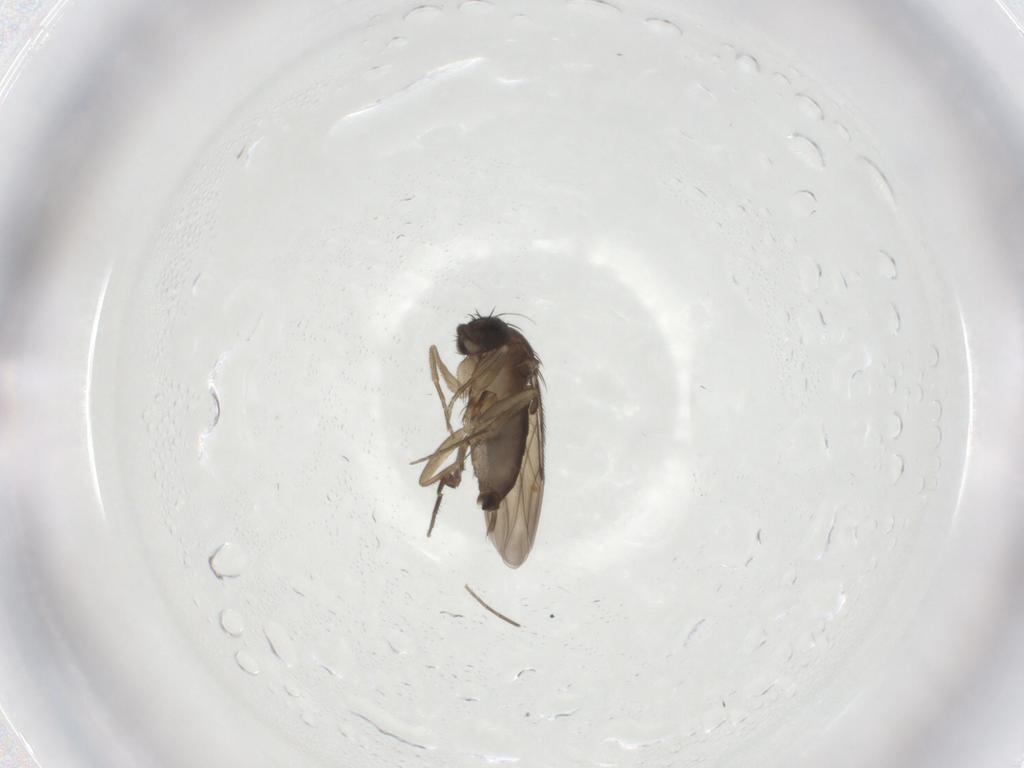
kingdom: Animalia
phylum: Arthropoda
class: Insecta
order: Diptera
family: Phoridae
